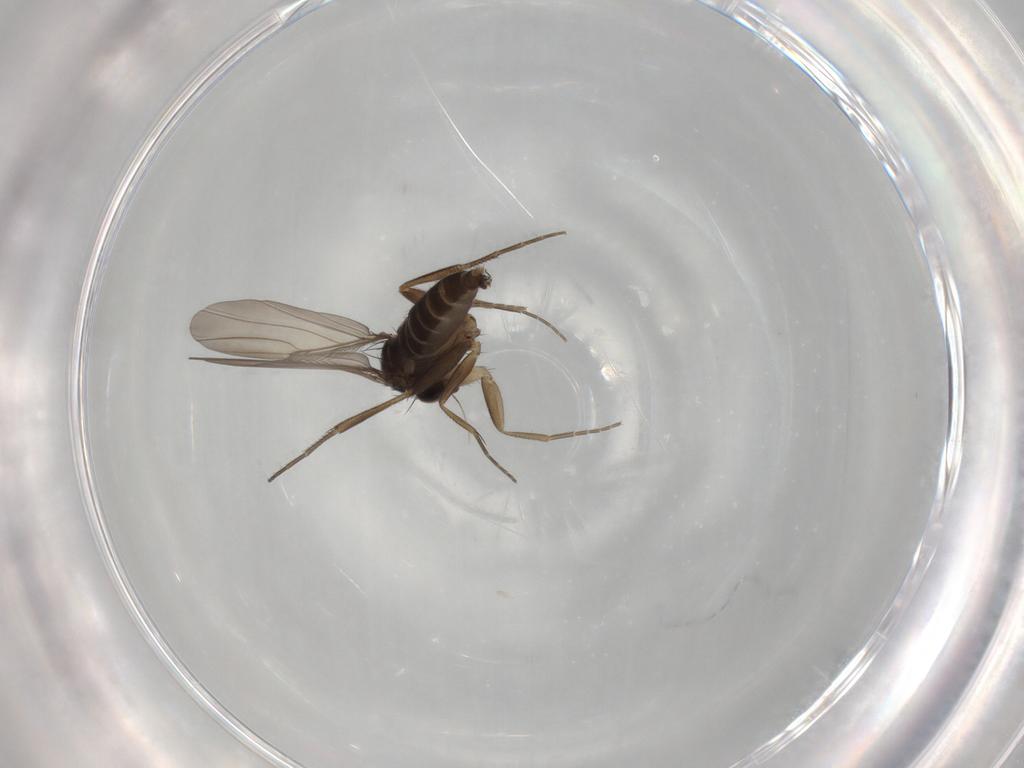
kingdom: Animalia
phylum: Arthropoda
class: Insecta
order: Diptera
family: Phoridae
